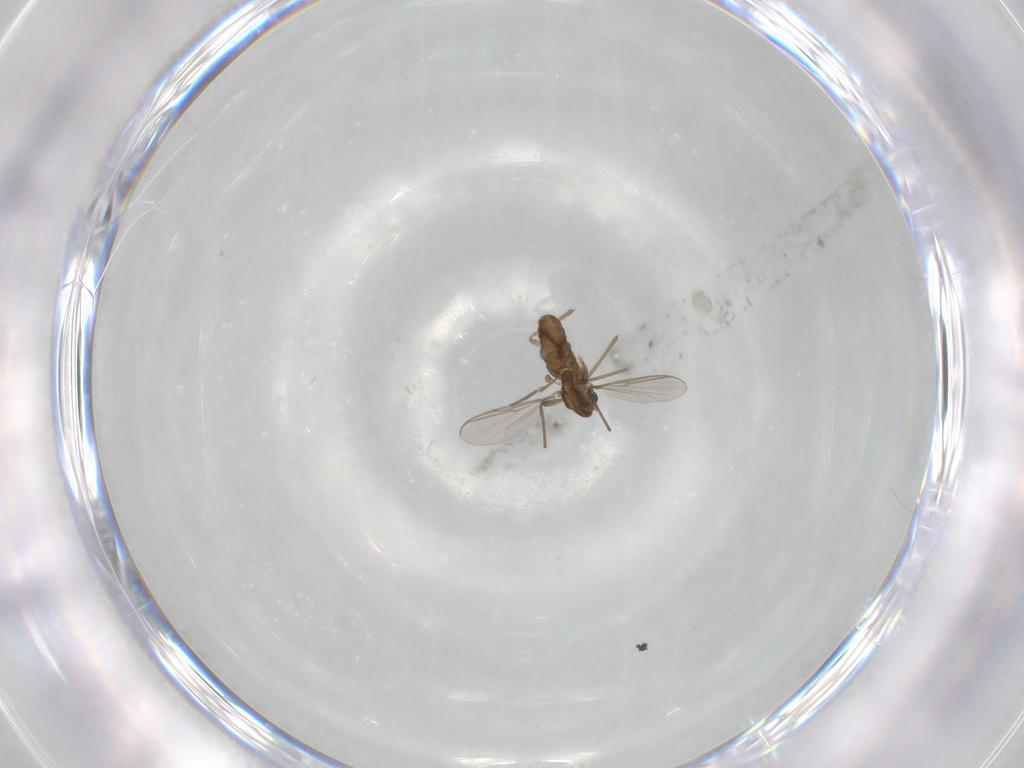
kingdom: Animalia
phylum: Arthropoda
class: Insecta
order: Diptera
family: Chironomidae
